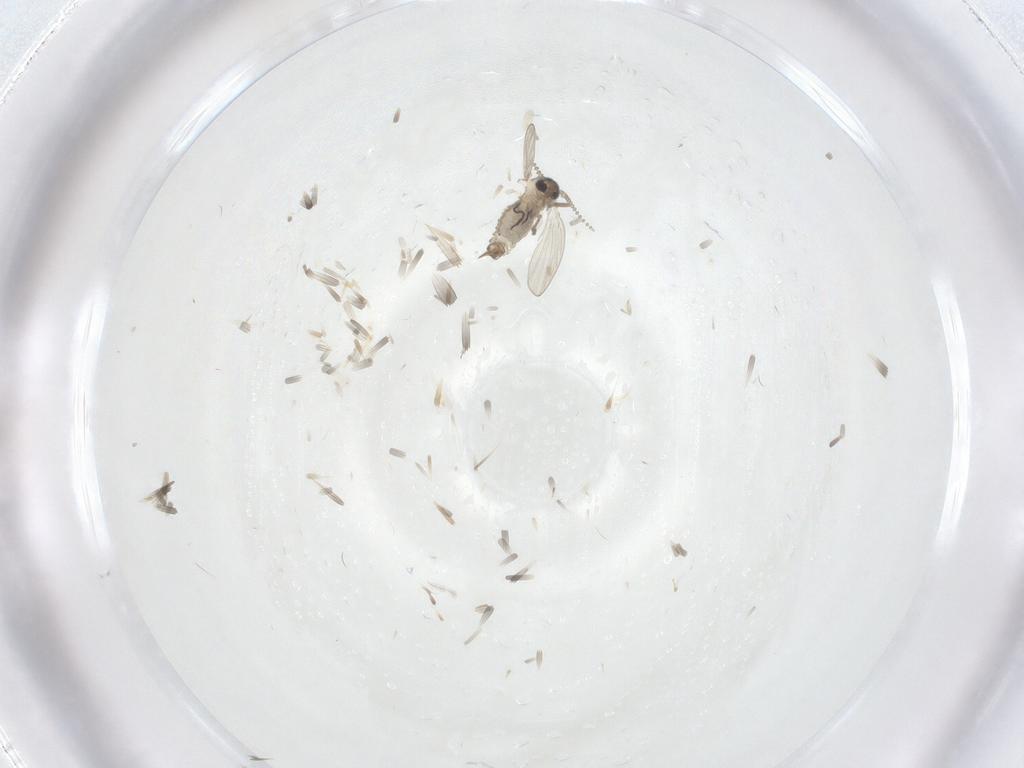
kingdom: Animalia
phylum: Arthropoda
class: Insecta
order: Diptera
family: Psychodidae
